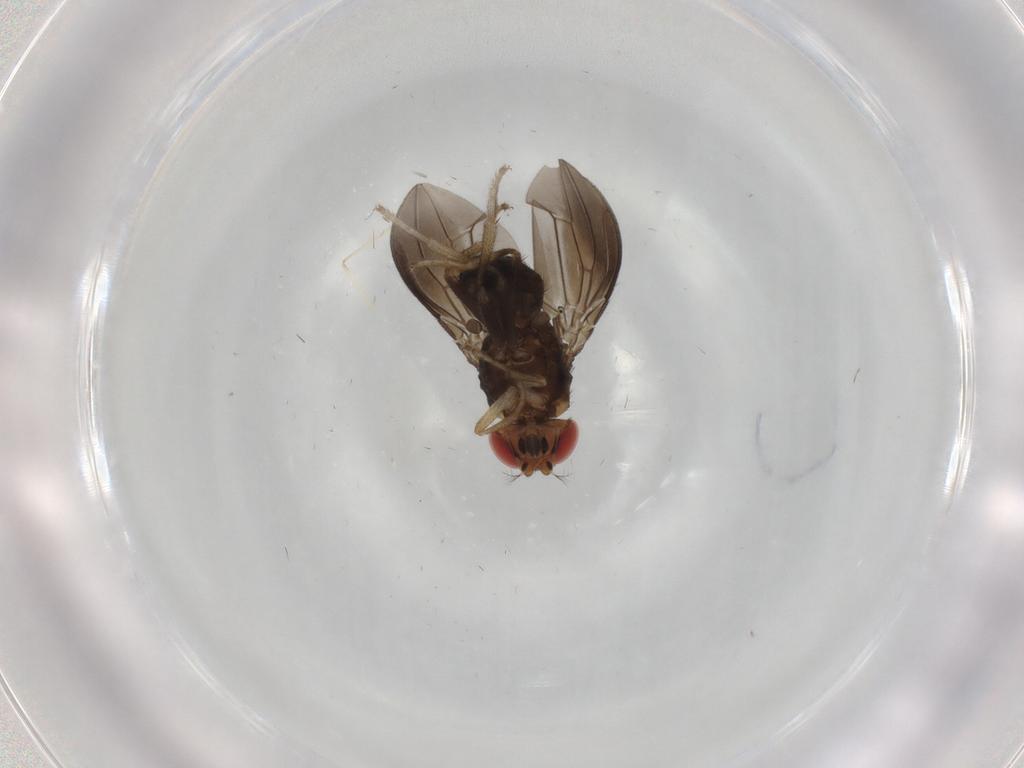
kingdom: Animalia
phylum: Arthropoda
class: Insecta
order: Diptera
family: Cecidomyiidae
